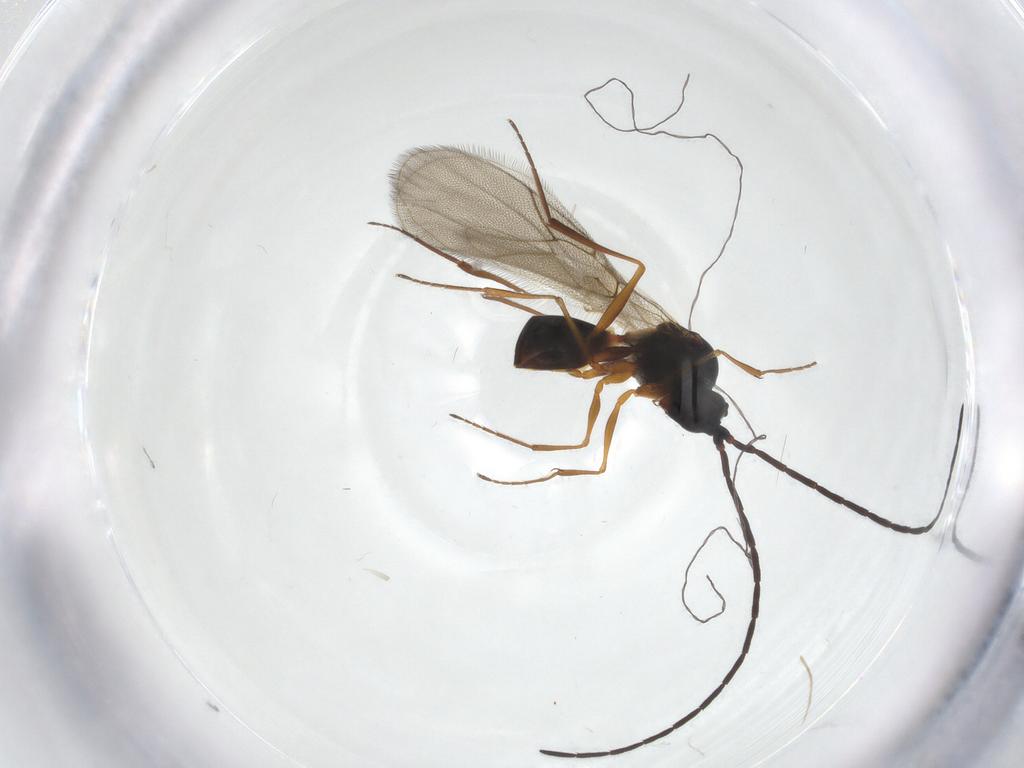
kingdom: Animalia
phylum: Arthropoda
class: Insecta
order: Hymenoptera
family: Figitidae
